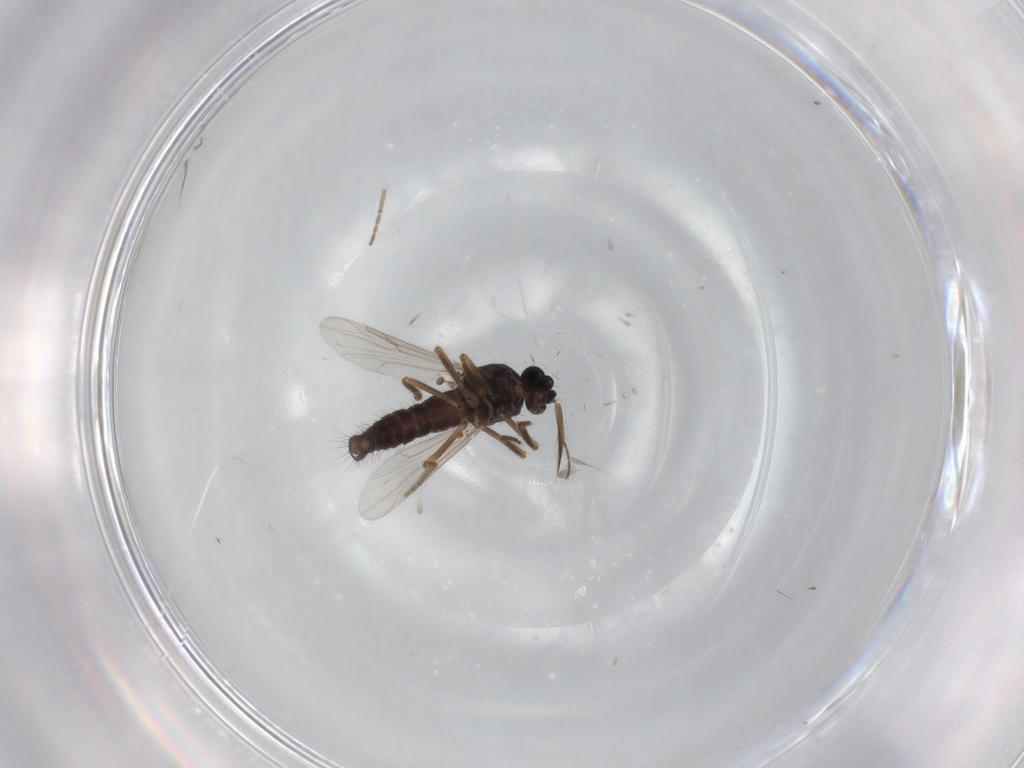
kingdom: Animalia
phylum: Arthropoda
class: Insecta
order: Diptera
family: Ceratopogonidae
